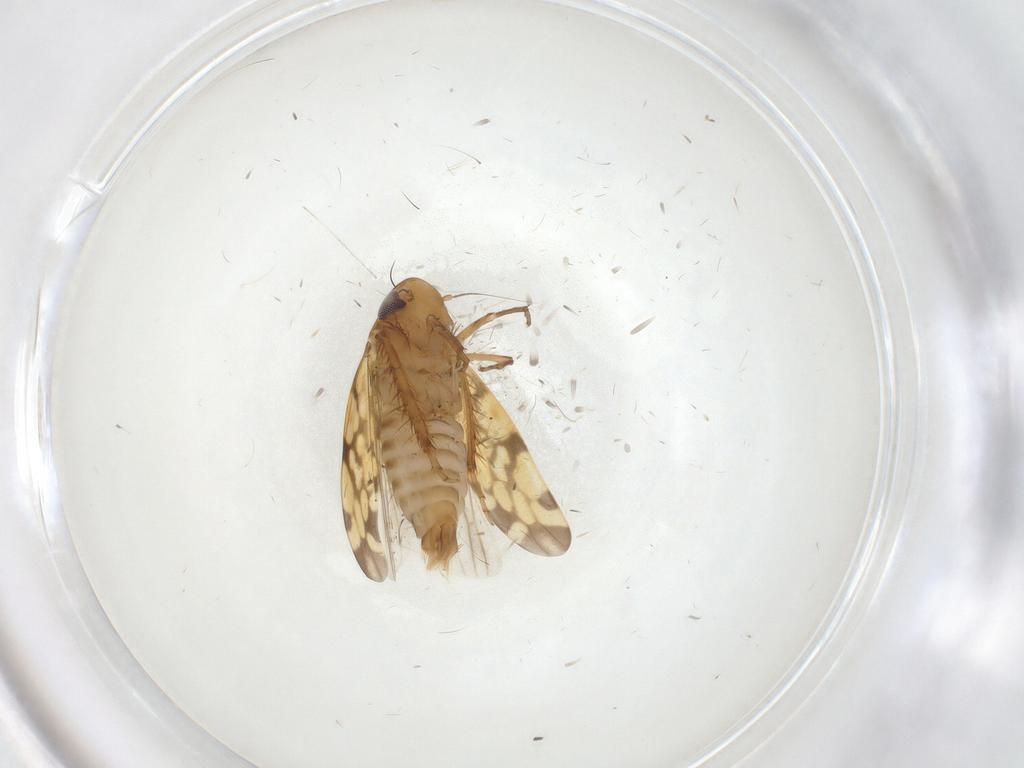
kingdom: Animalia
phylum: Arthropoda
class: Insecta
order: Hemiptera
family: Cicadellidae
